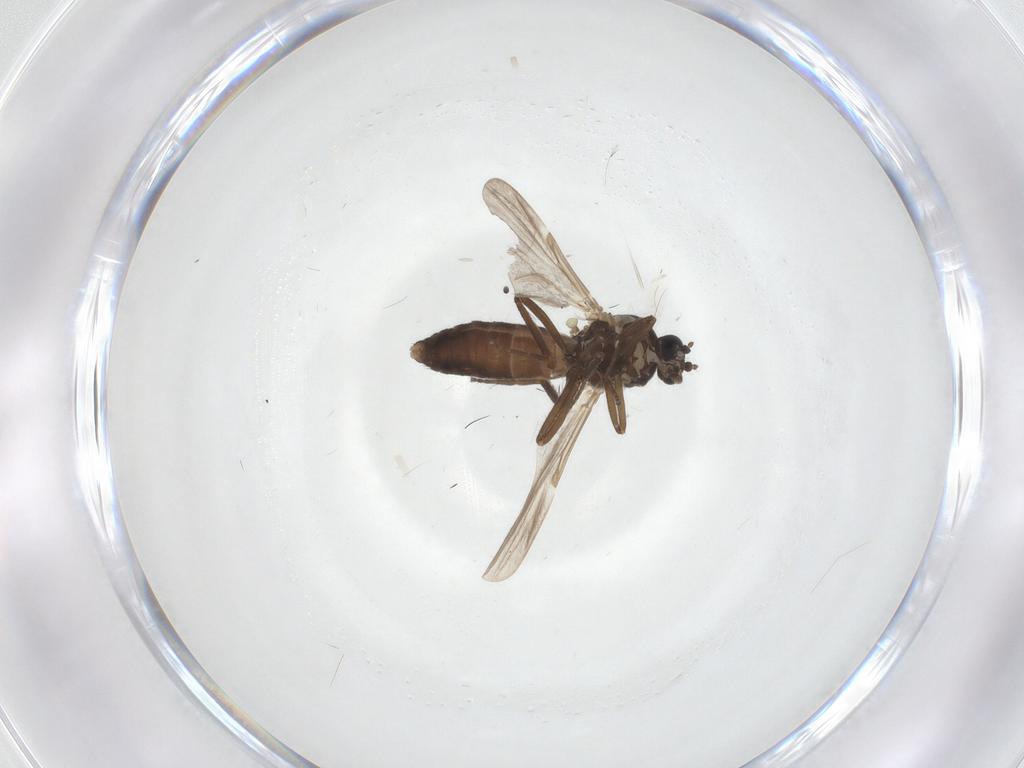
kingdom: Animalia
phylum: Arthropoda
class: Insecta
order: Diptera
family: Ceratopogonidae
